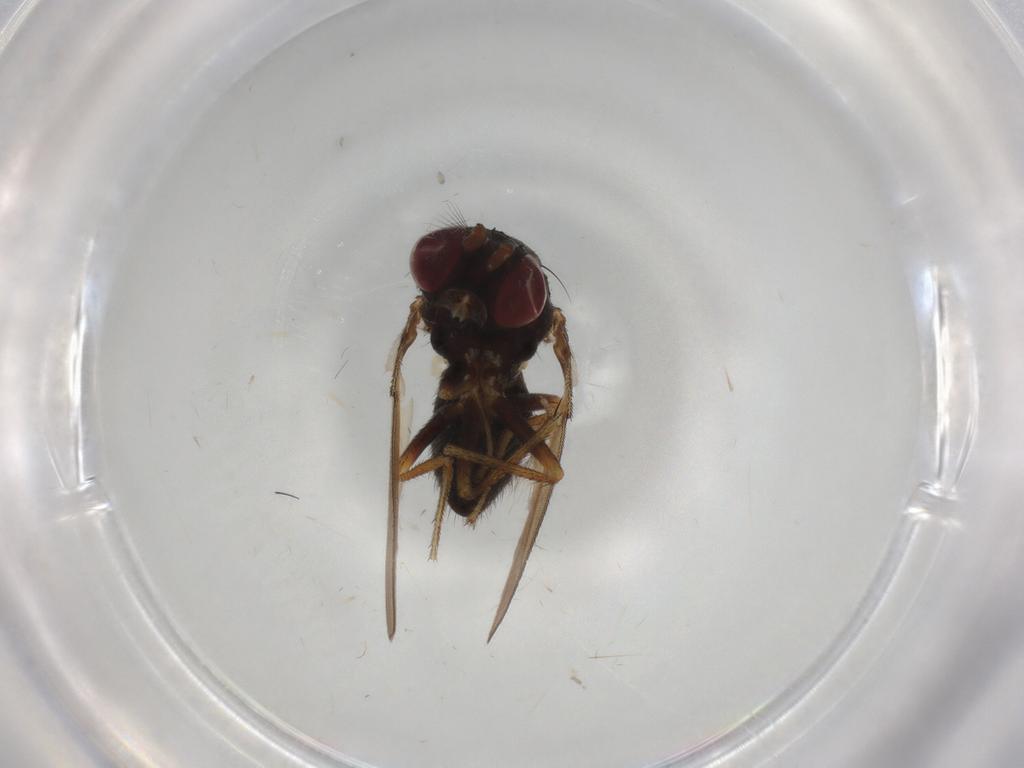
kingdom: Animalia
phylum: Arthropoda
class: Insecta
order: Diptera
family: Ephydridae
